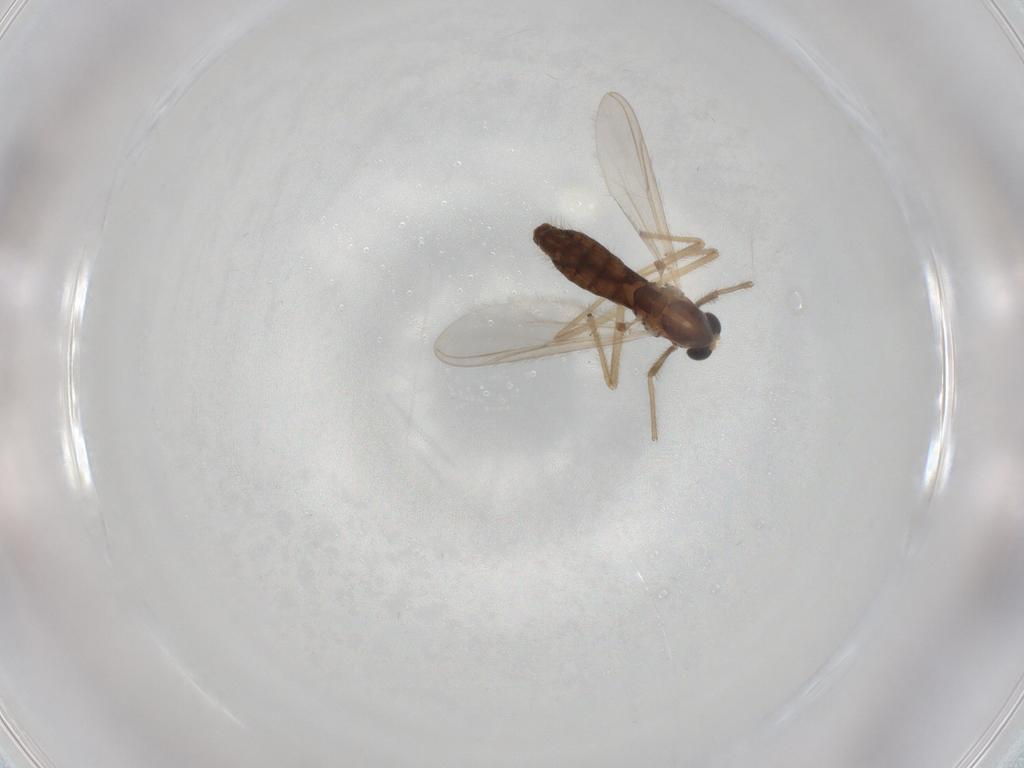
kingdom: Animalia
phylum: Arthropoda
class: Insecta
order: Diptera
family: Ceratopogonidae
